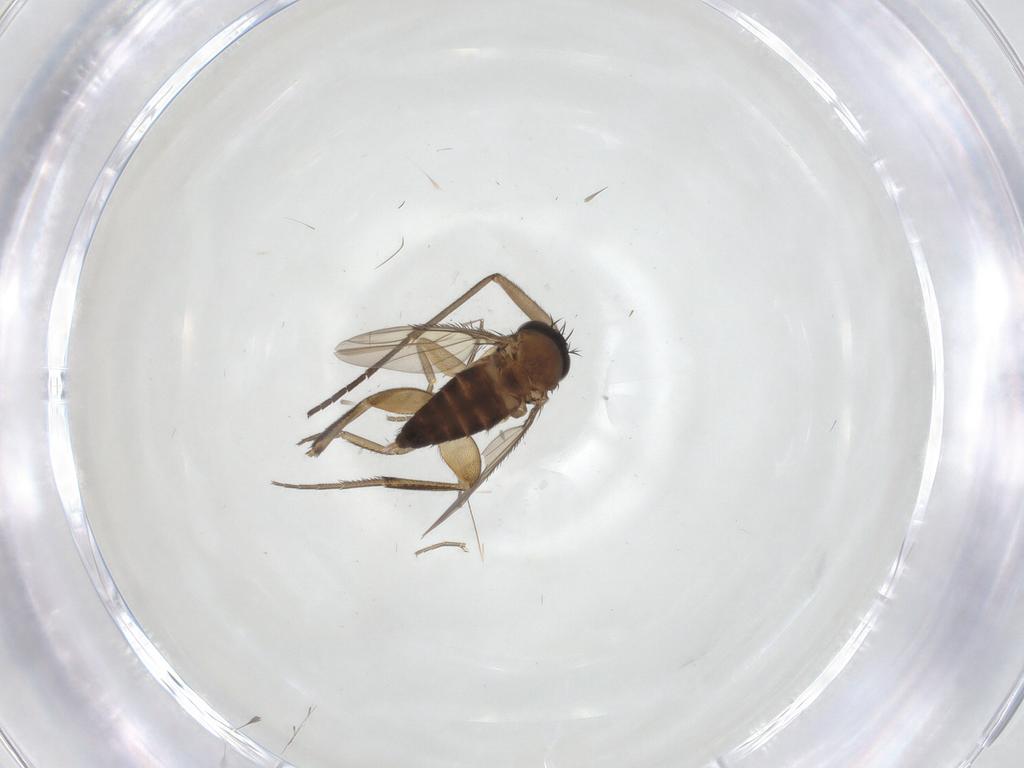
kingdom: Animalia
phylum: Arthropoda
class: Insecta
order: Diptera
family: Phoridae
